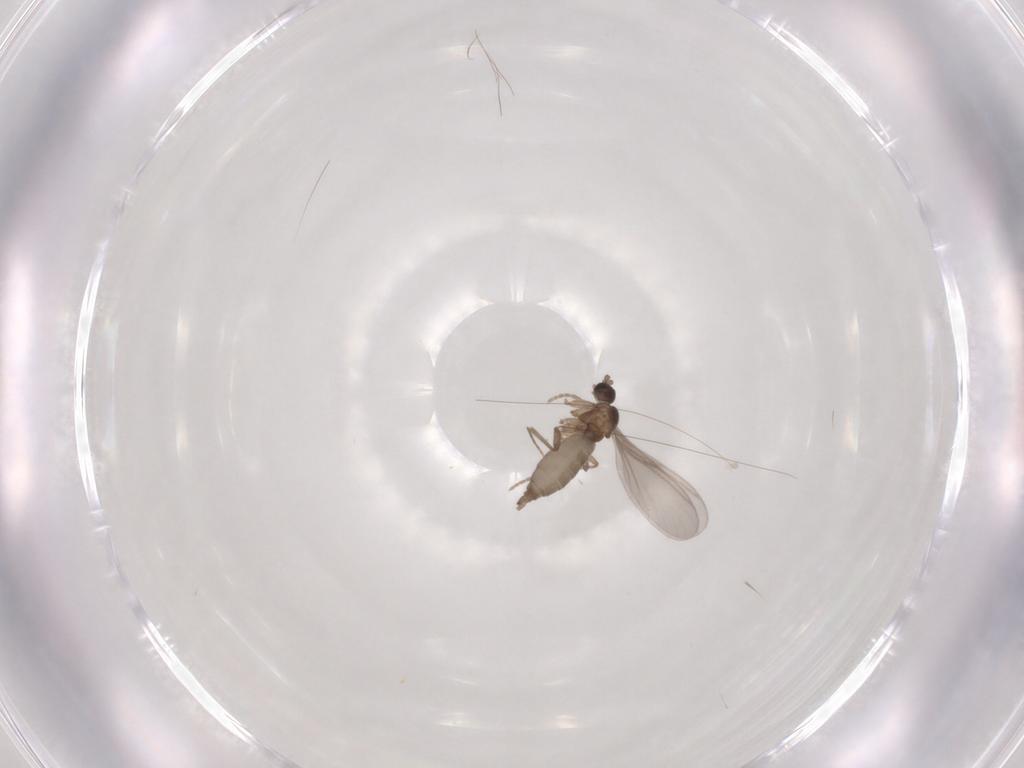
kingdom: Animalia
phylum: Arthropoda
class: Insecta
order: Diptera
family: Ceratopogonidae
